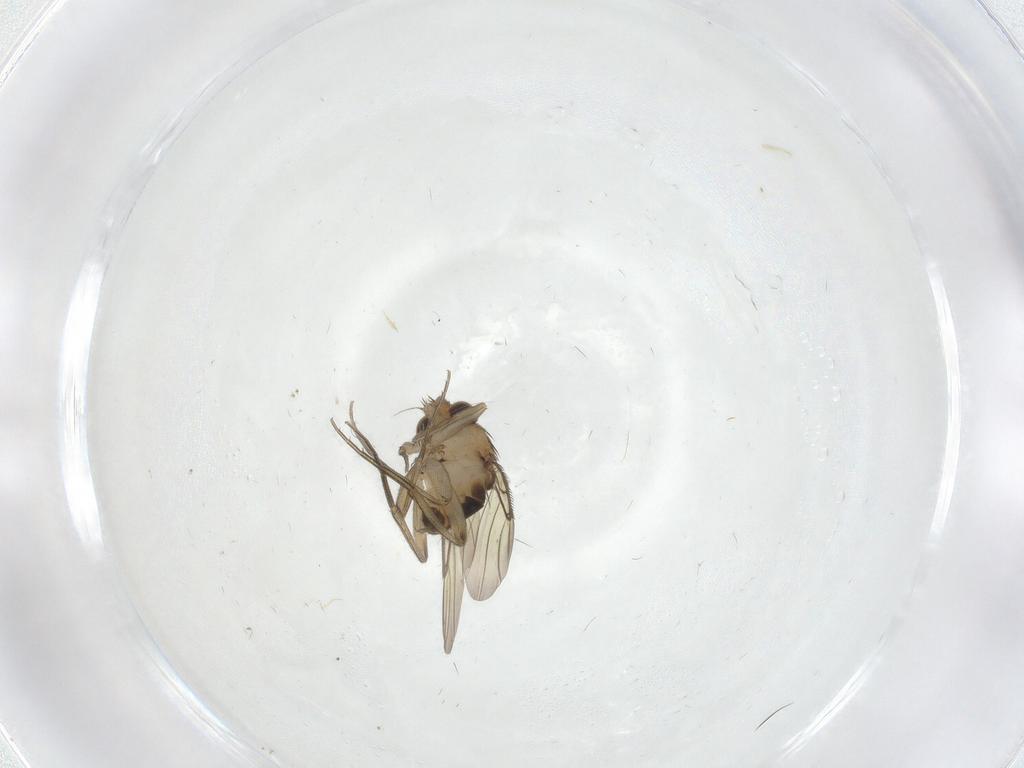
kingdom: Animalia
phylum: Arthropoda
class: Insecta
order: Diptera
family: Phoridae
